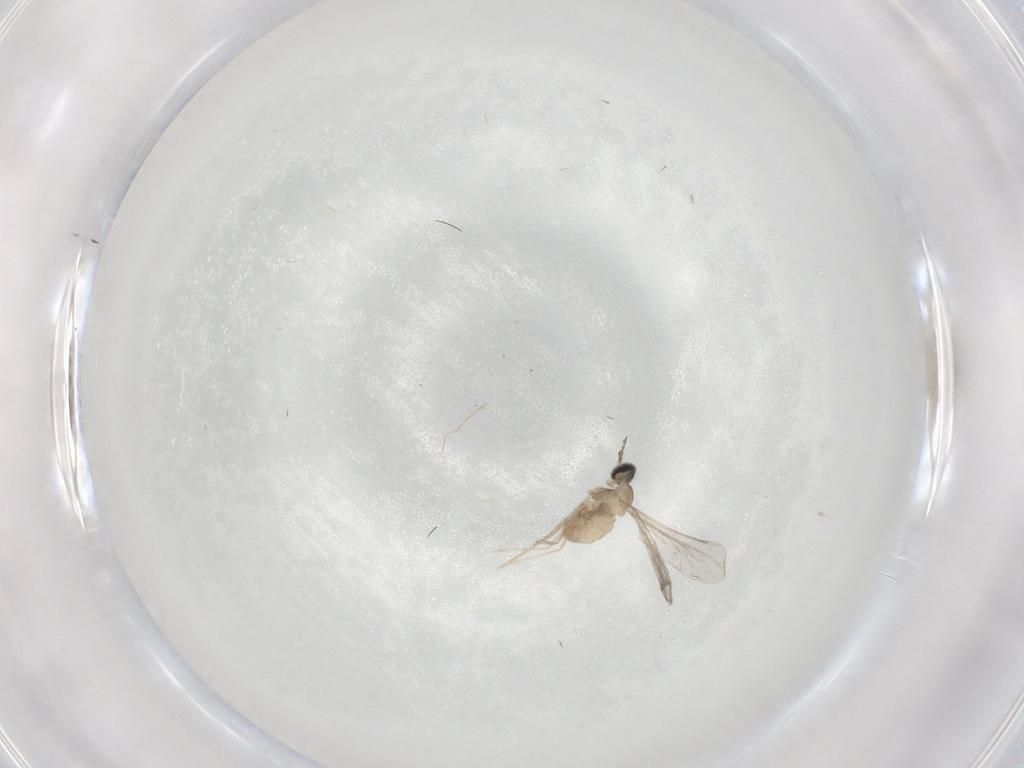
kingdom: Animalia
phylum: Arthropoda
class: Insecta
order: Diptera
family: Cecidomyiidae
